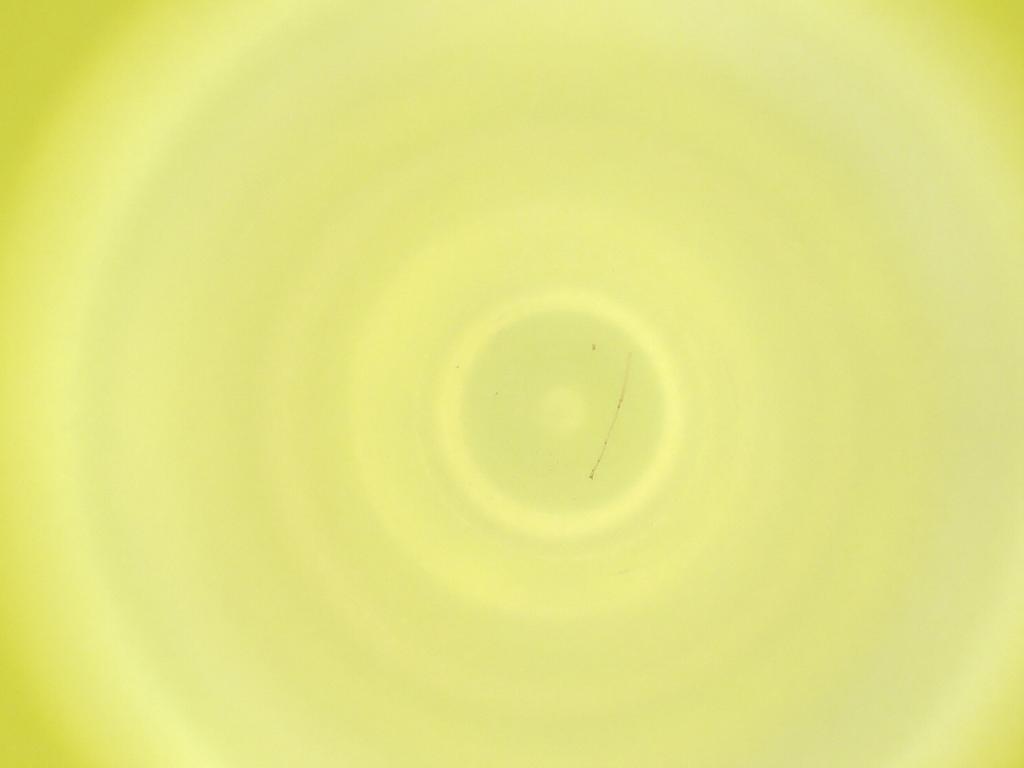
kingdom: Animalia
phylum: Arthropoda
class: Insecta
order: Diptera
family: Cecidomyiidae
